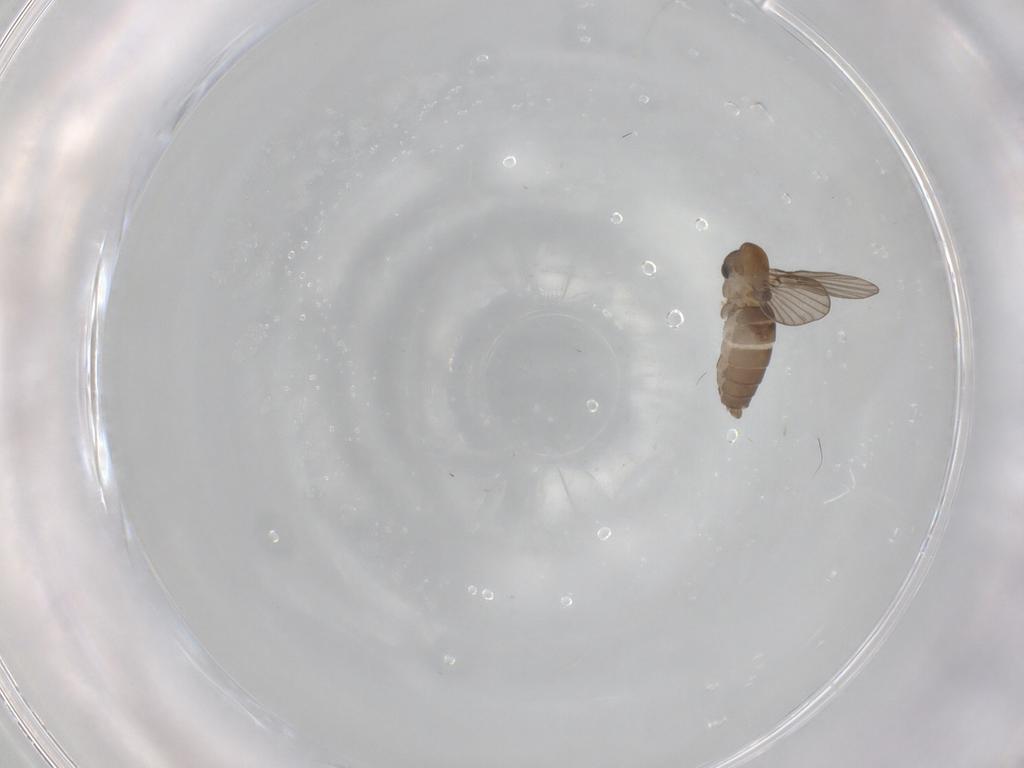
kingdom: Animalia
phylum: Arthropoda
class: Insecta
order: Diptera
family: Psychodidae
